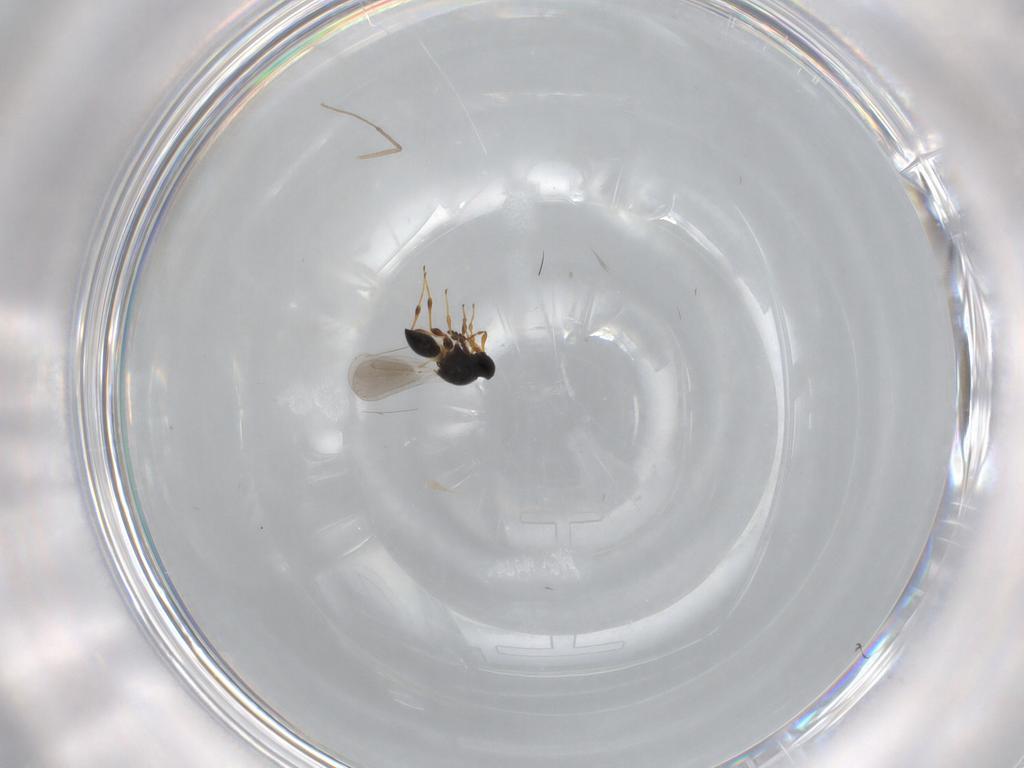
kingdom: Animalia
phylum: Arthropoda
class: Insecta
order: Hymenoptera
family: Platygastridae
